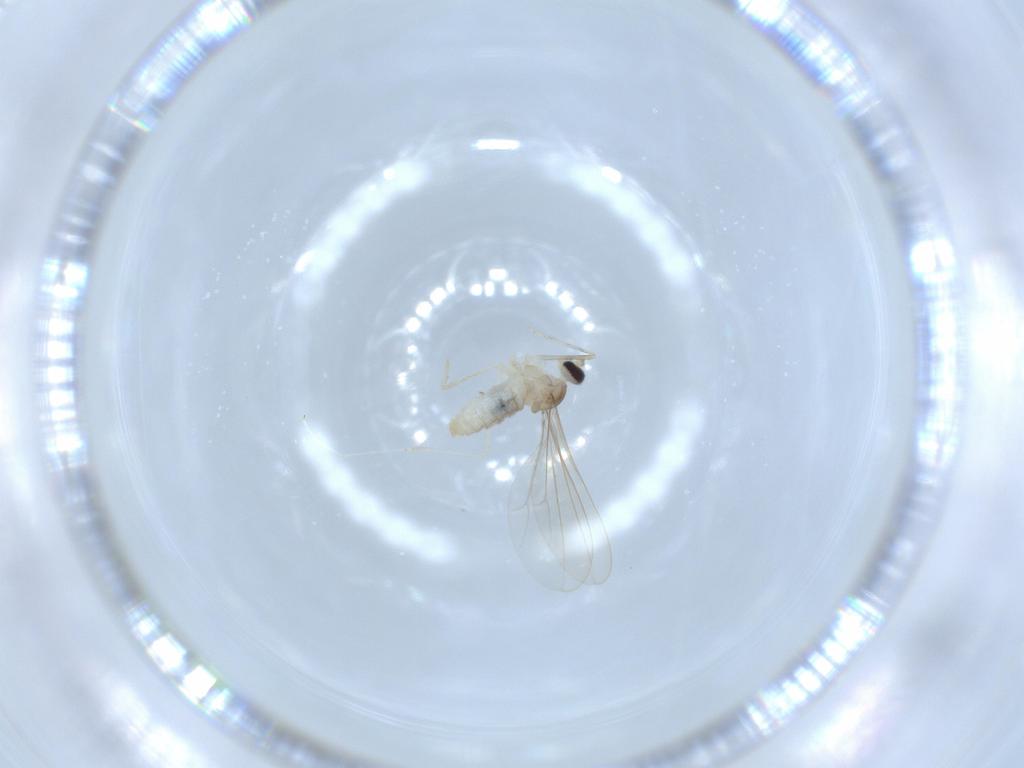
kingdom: Animalia
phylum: Arthropoda
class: Insecta
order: Diptera
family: Cecidomyiidae
